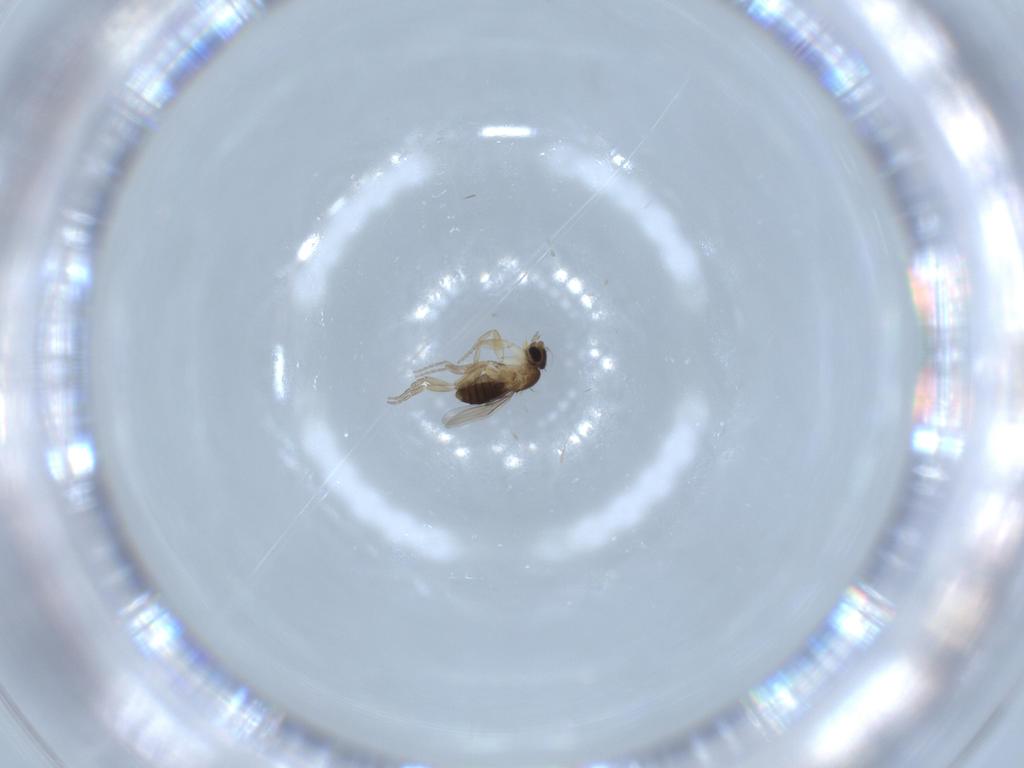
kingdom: Animalia
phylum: Arthropoda
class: Insecta
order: Diptera
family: Phoridae
